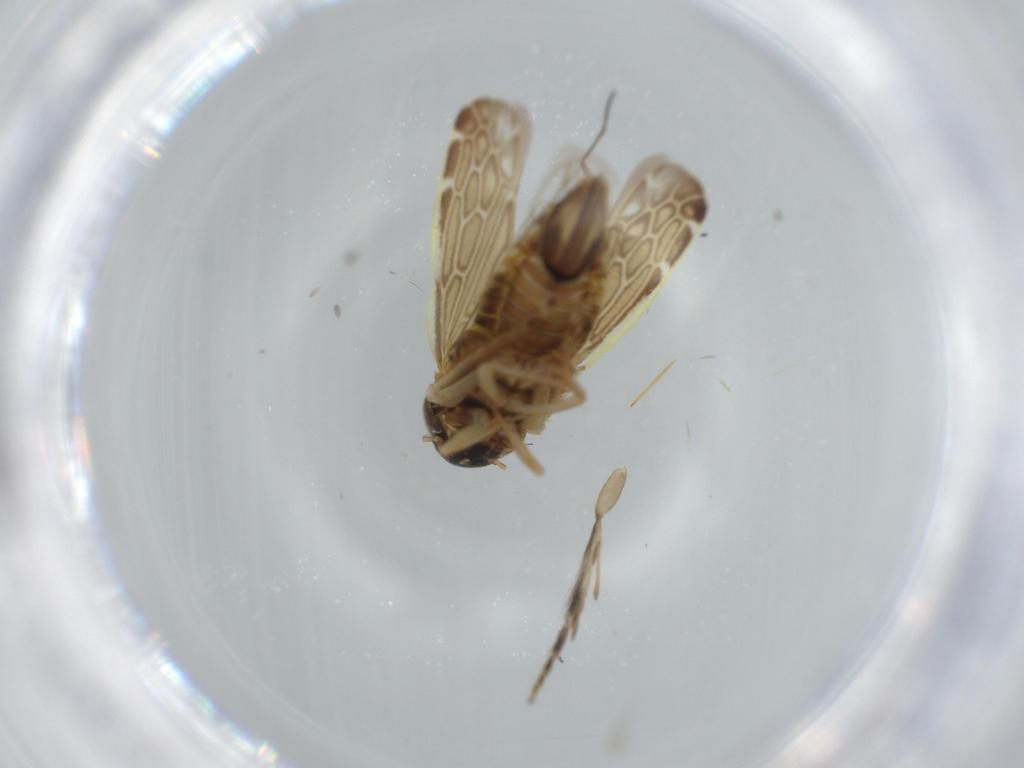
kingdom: Animalia
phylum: Arthropoda
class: Insecta
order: Hemiptera
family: Cicadellidae
